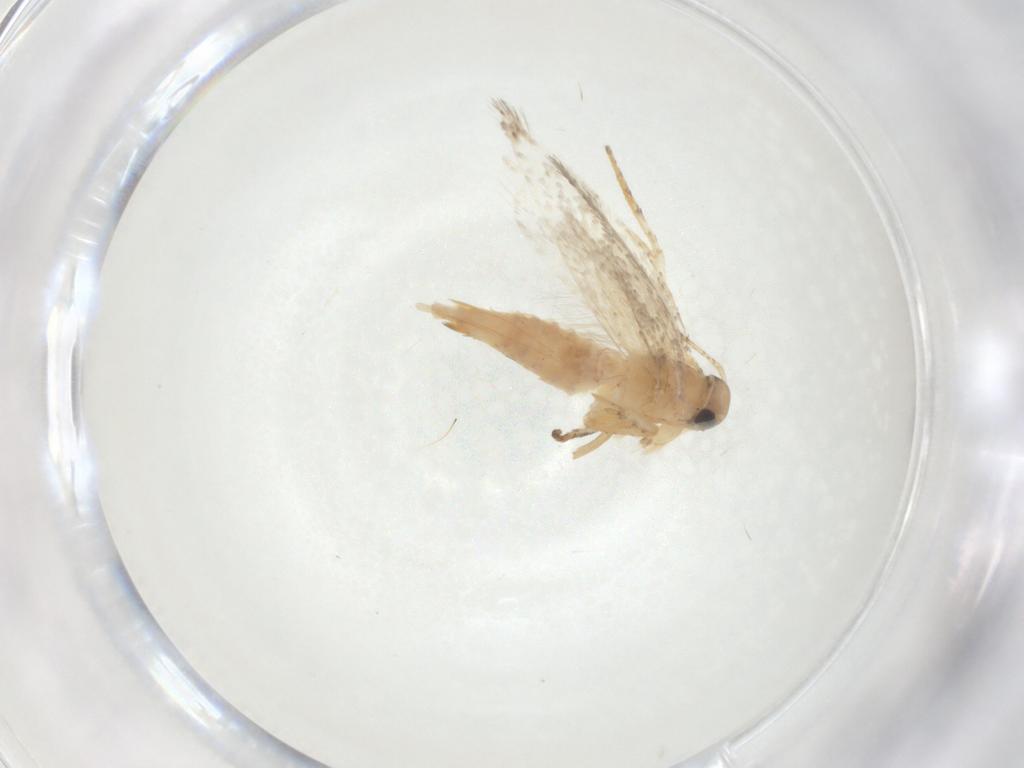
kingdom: Animalia
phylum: Arthropoda
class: Insecta
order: Lepidoptera
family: Gelechiidae
